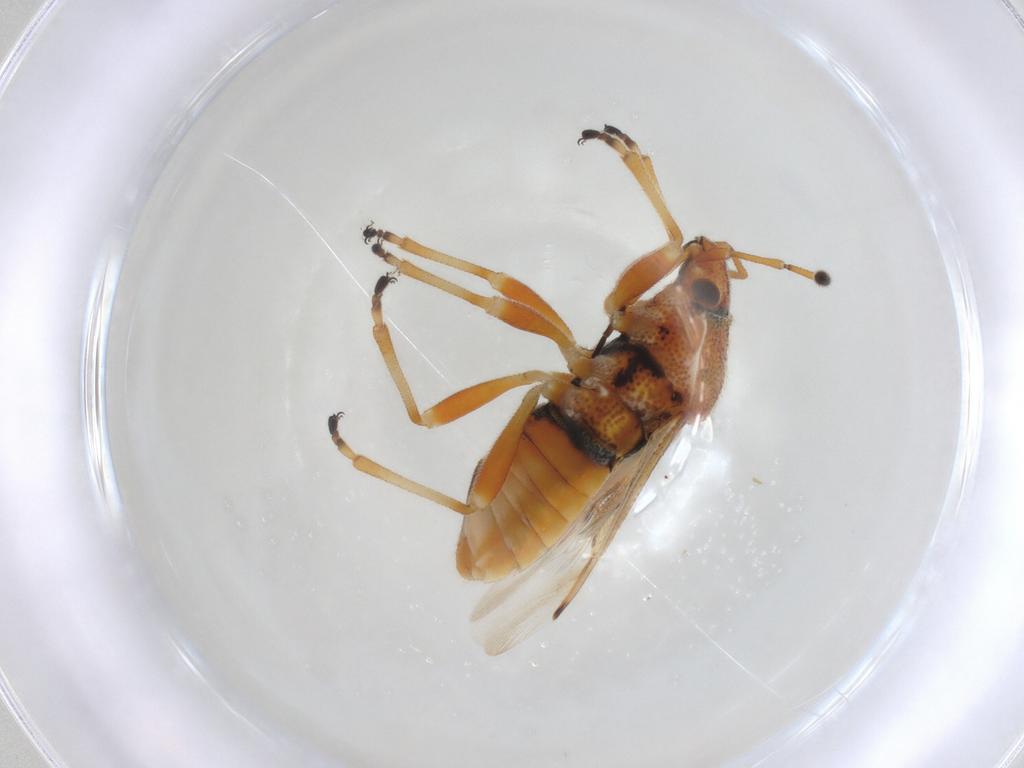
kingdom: Animalia
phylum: Arthropoda
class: Insecta
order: Hemiptera
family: Lygaeidae
